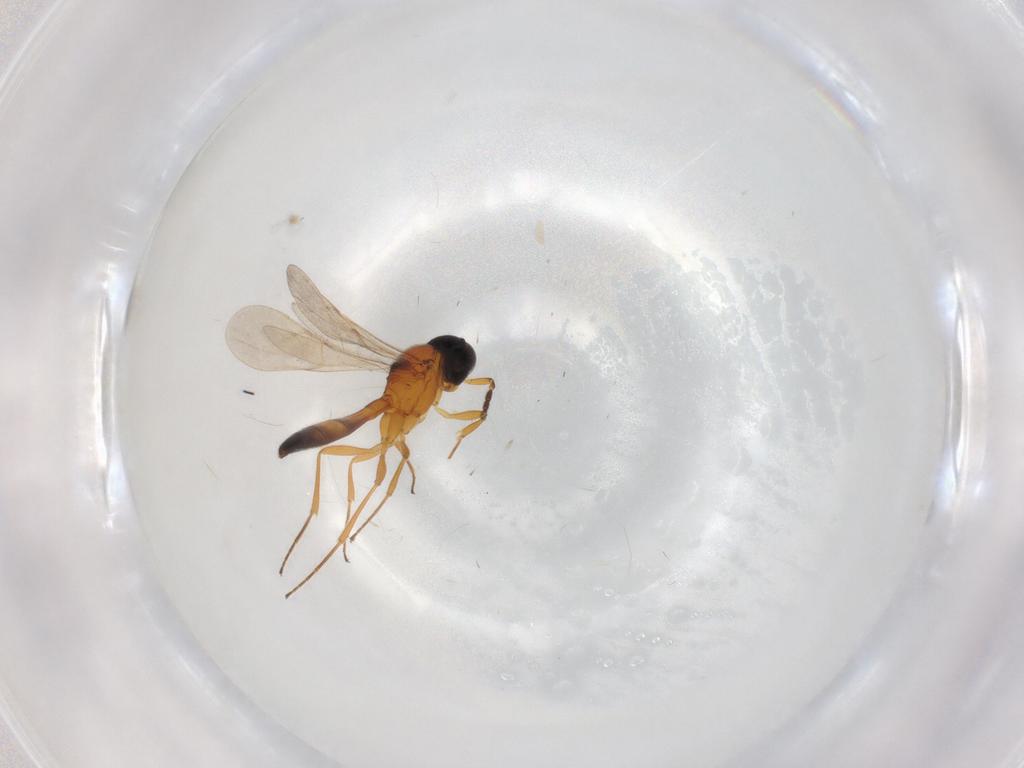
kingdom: Animalia
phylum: Arthropoda
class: Insecta
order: Hymenoptera
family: Scelionidae
